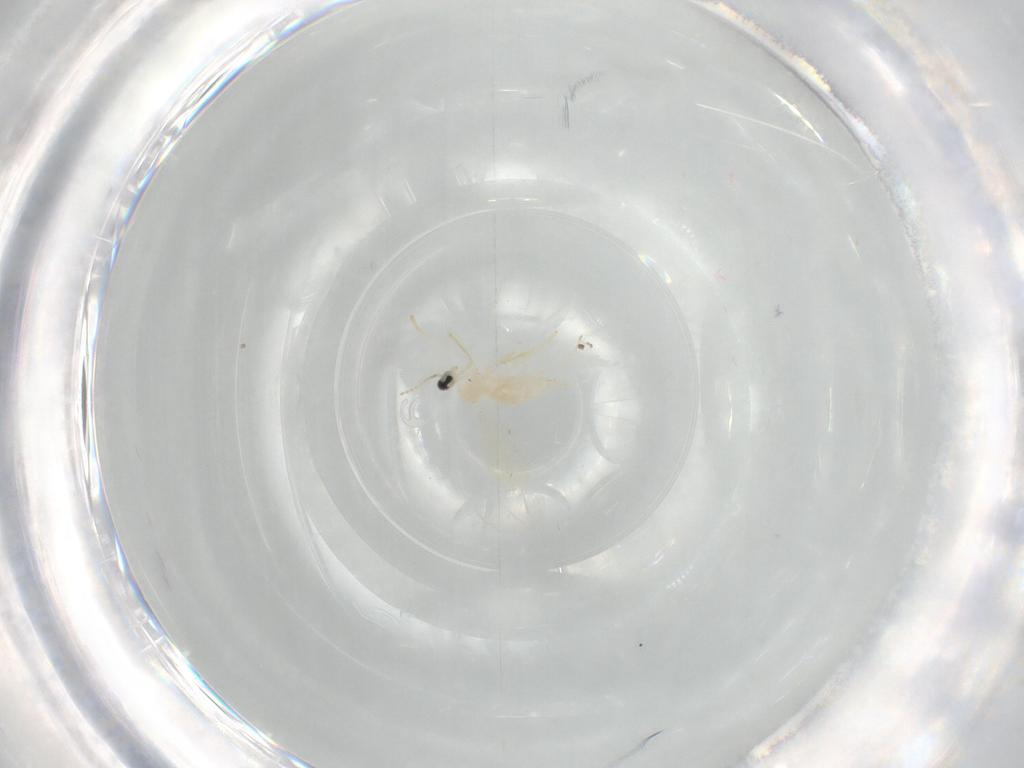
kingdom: Animalia
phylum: Arthropoda
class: Insecta
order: Diptera
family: Cecidomyiidae
